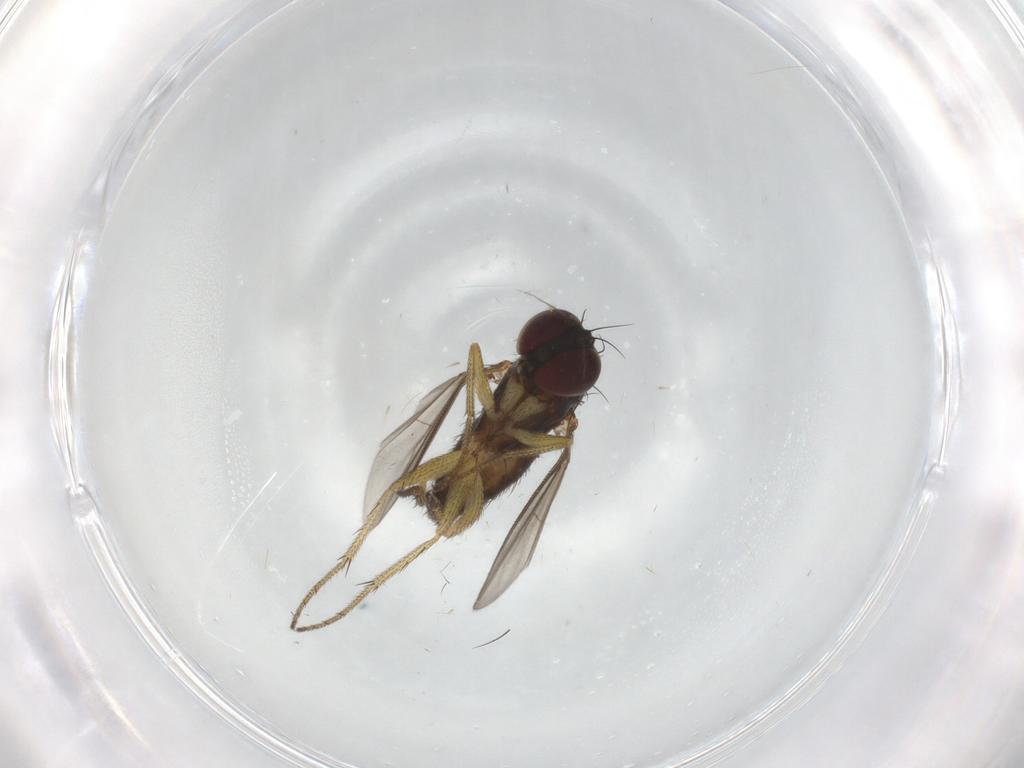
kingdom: Animalia
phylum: Arthropoda
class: Insecta
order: Diptera
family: Dolichopodidae
